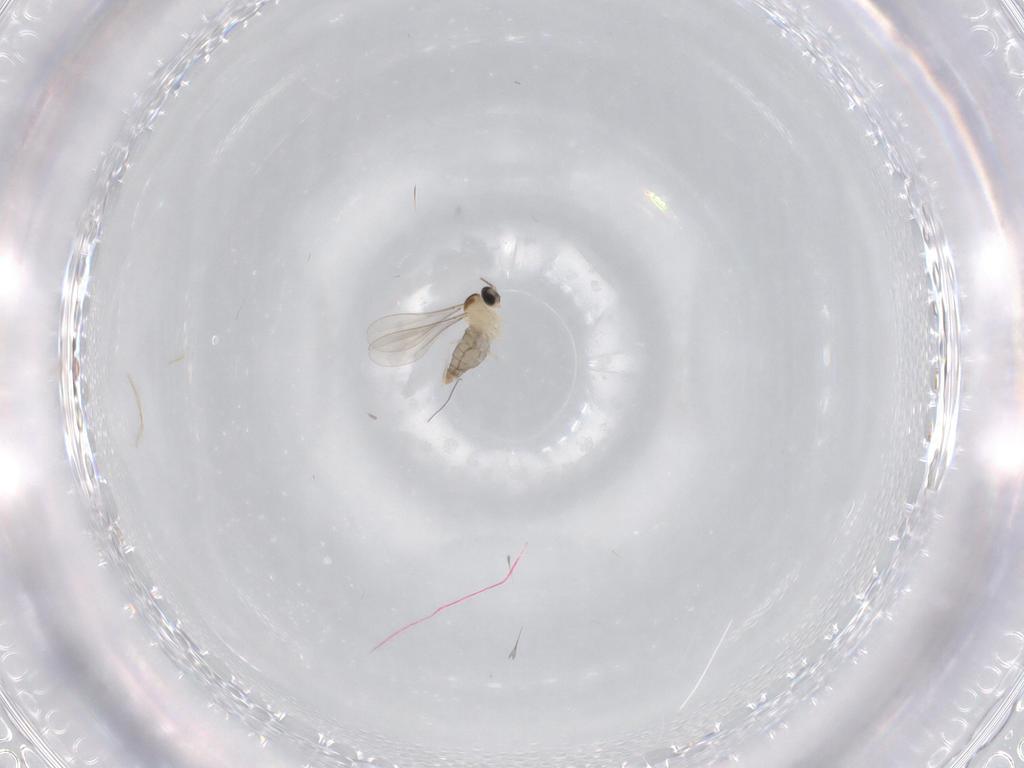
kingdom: Animalia
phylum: Arthropoda
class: Insecta
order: Diptera
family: Cecidomyiidae
